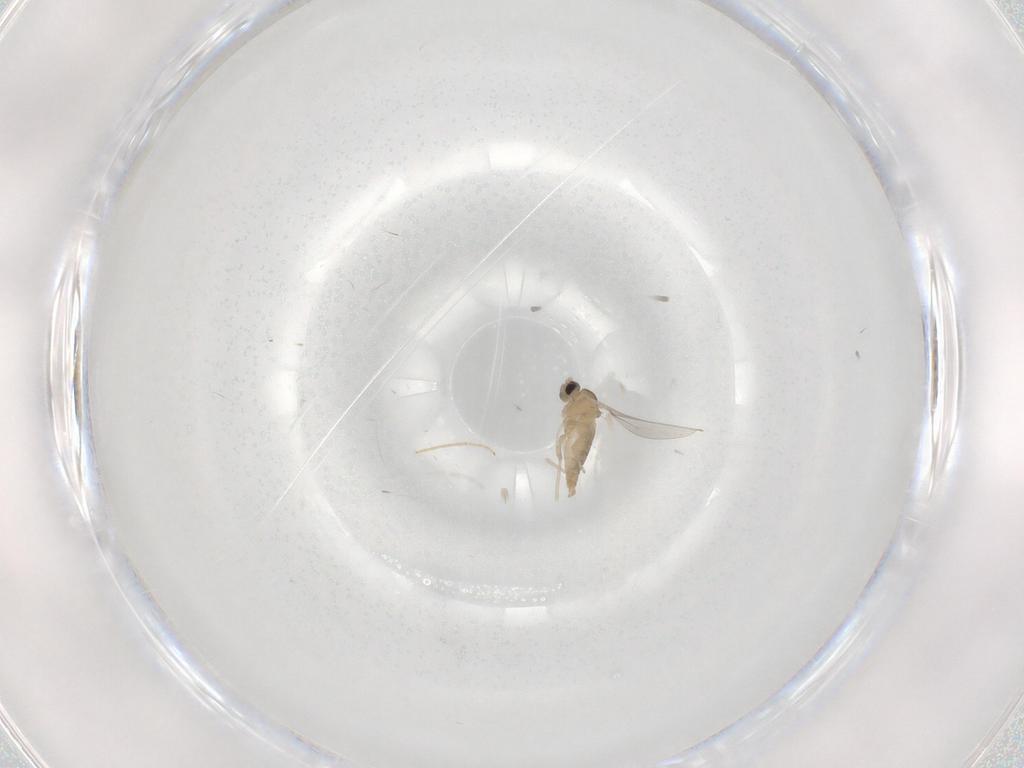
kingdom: Animalia
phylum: Arthropoda
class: Insecta
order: Diptera
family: Cecidomyiidae
